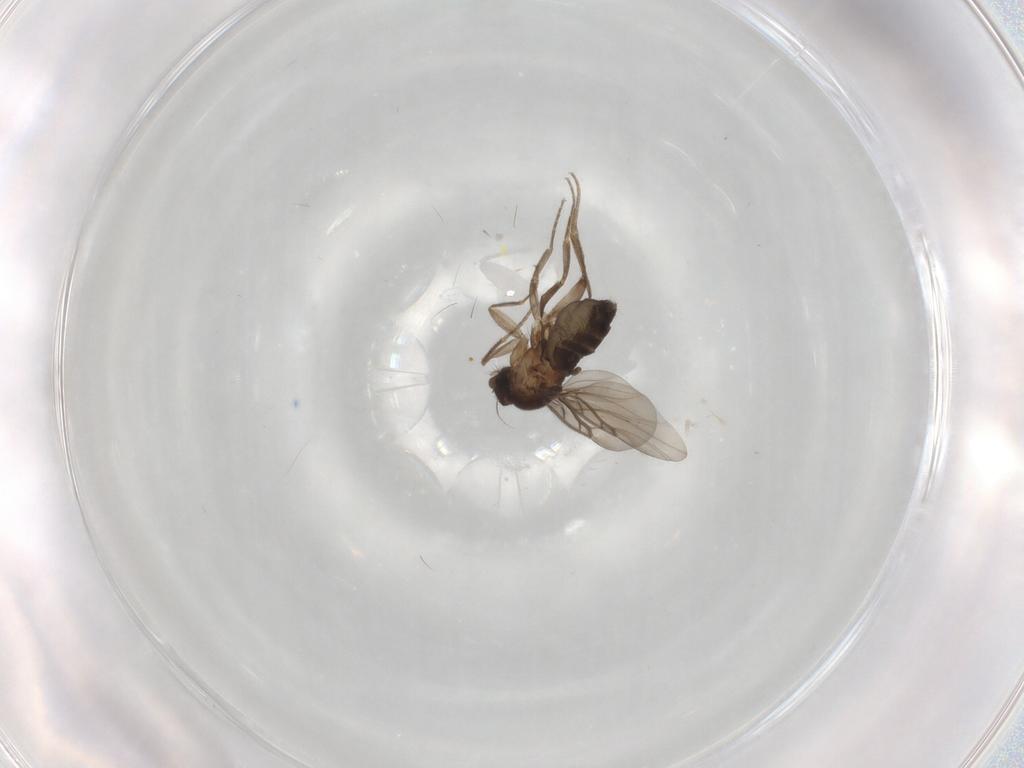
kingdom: Animalia
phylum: Arthropoda
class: Insecta
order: Diptera
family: Phoridae
